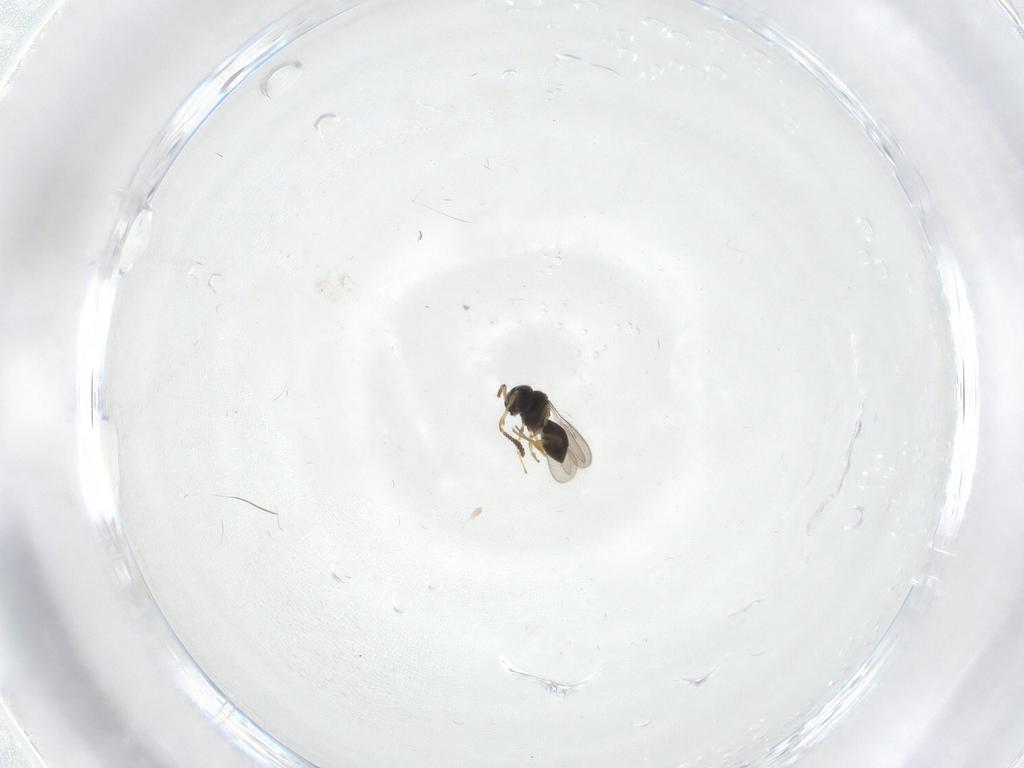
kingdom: Animalia
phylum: Arthropoda
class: Insecta
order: Hymenoptera
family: Scelionidae
